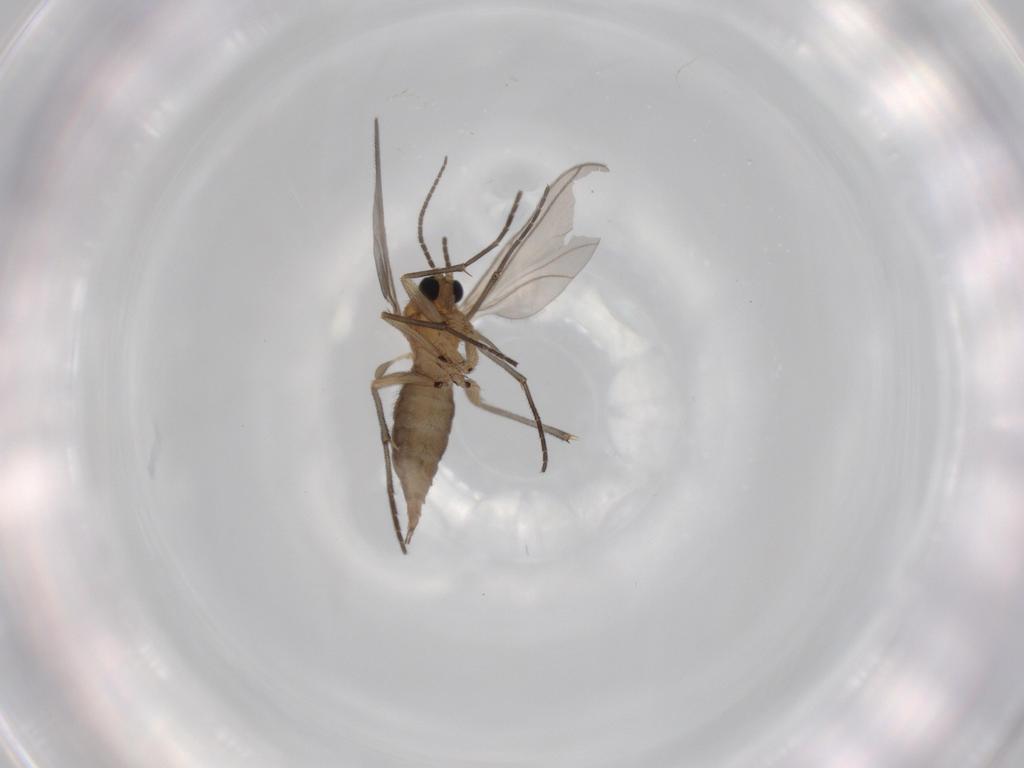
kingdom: Animalia
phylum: Arthropoda
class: Insecta
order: Diptera
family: Sciaridae
